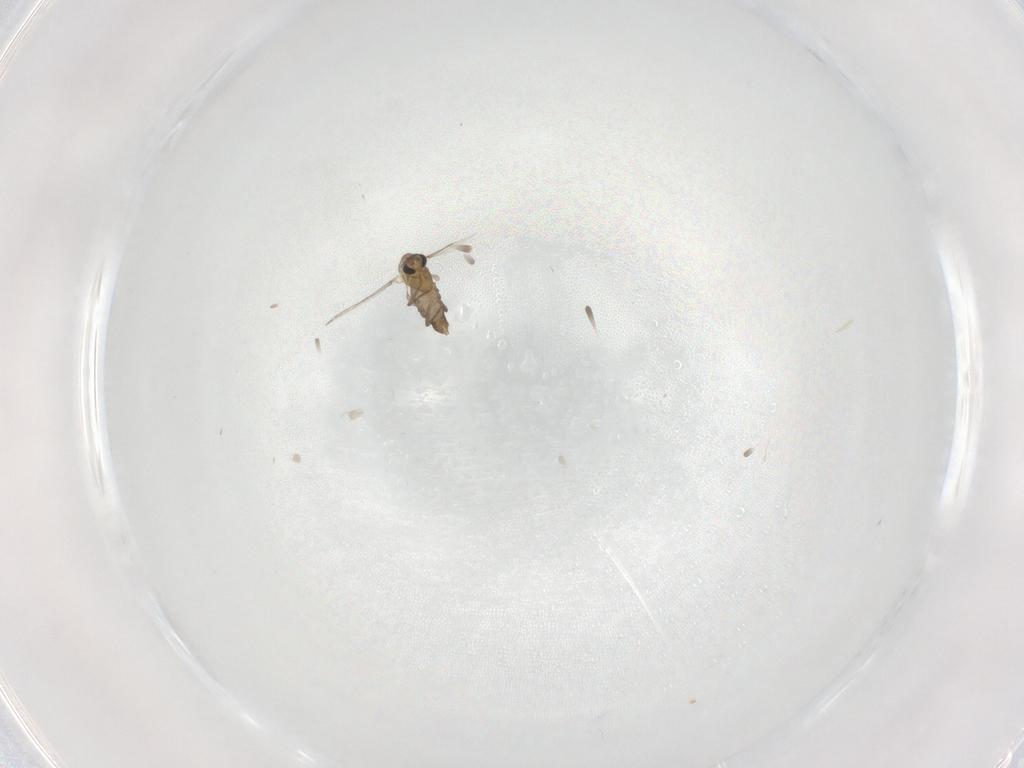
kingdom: Animalia
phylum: Arthropoda
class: Insecta
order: Diptera
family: Chironomidae
